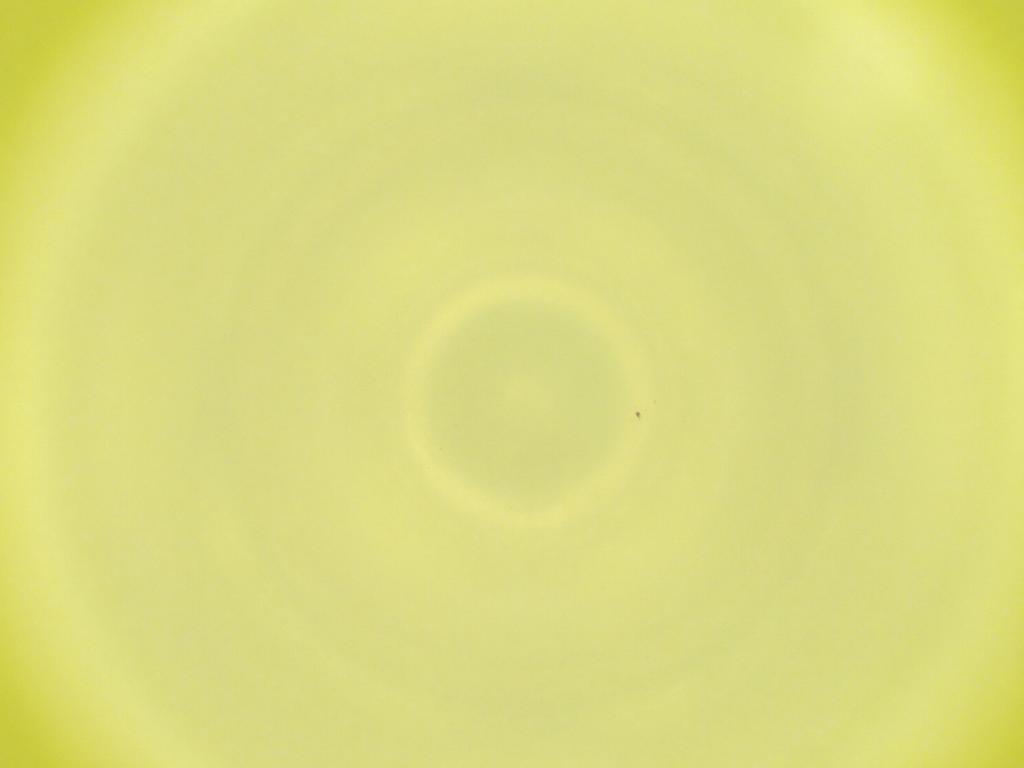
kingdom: Animalia
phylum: Arthropoda
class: Insecta
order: Diptera
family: Cecidomyiidae
